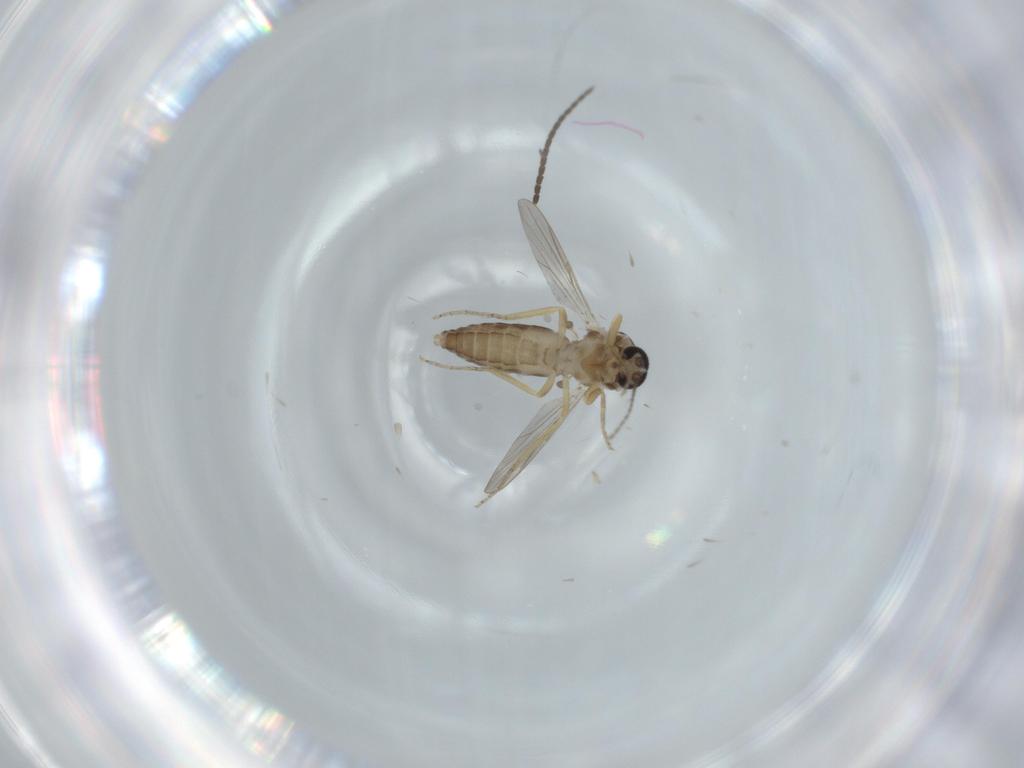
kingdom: Animalia
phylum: Arthropoda
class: Insecta
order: Diptera
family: Ceratopogonidae
